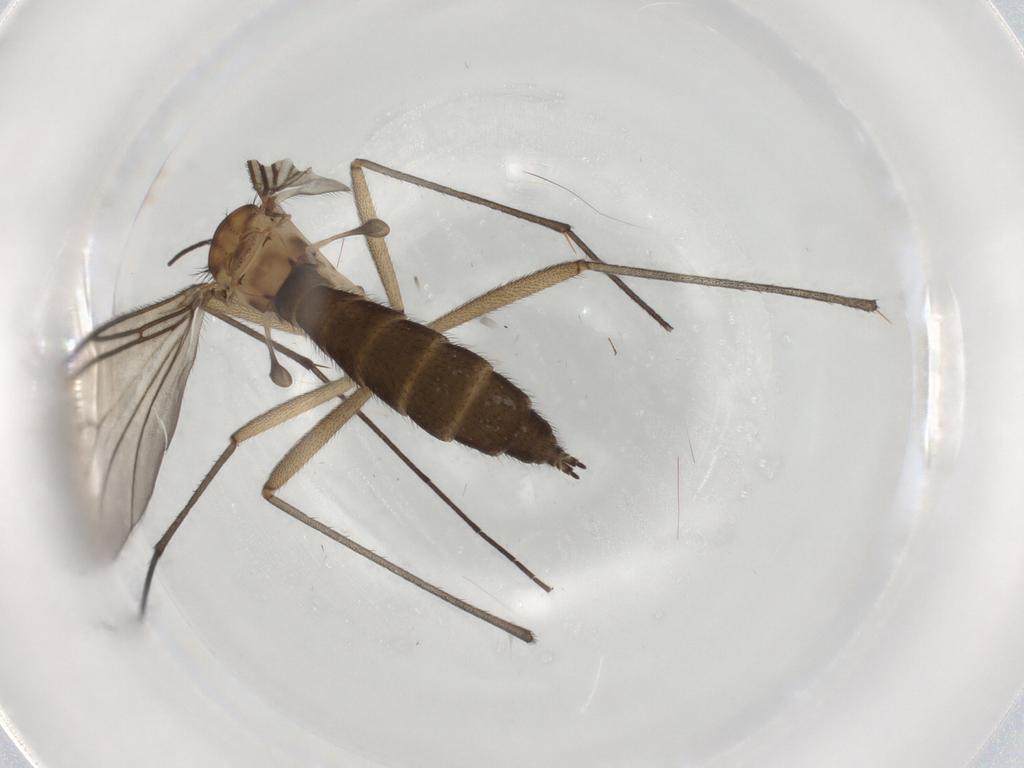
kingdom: Animalia
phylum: Arthropoda
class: Insecta
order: Diptera
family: Sciaridae
